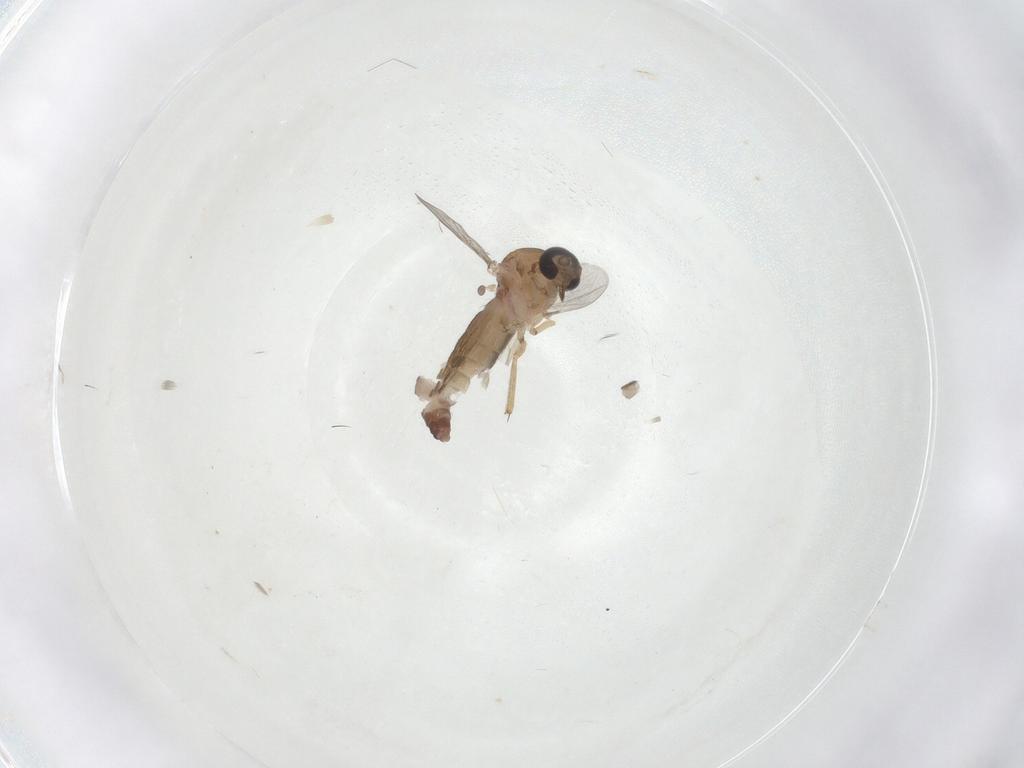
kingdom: Animalia
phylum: Arthropoda
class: Insecta
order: Diptera
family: Ceratopogonidae
